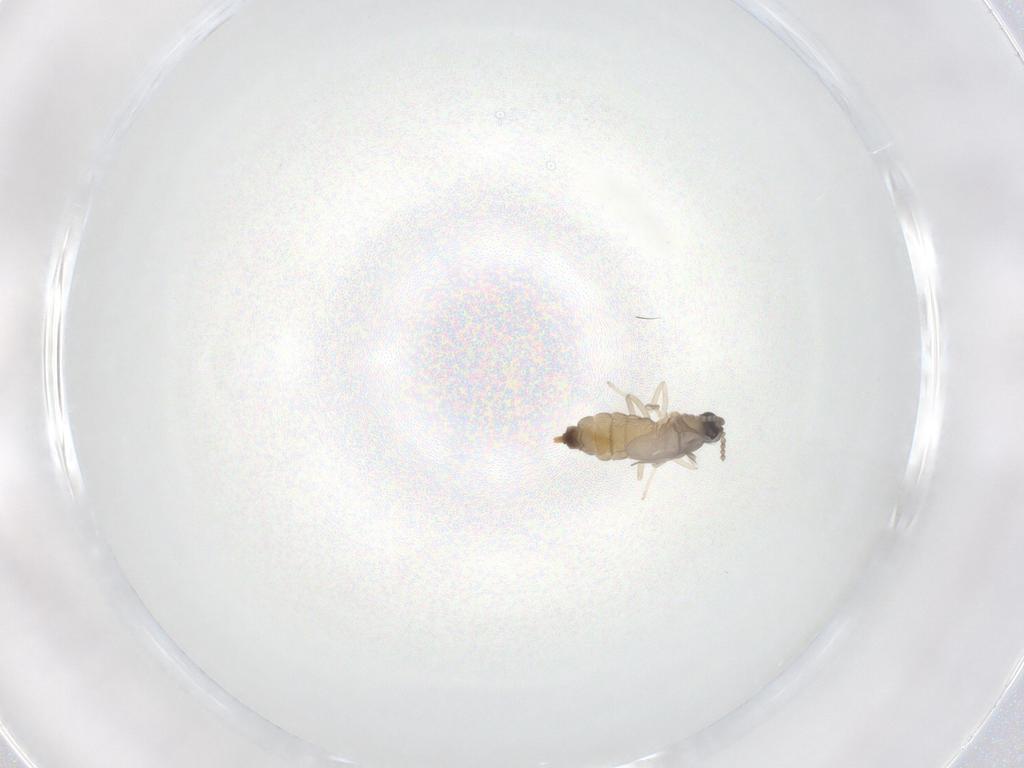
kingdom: Animalia
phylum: Arthropoda
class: Insecta
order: Diptera
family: Cecidomyiidae
